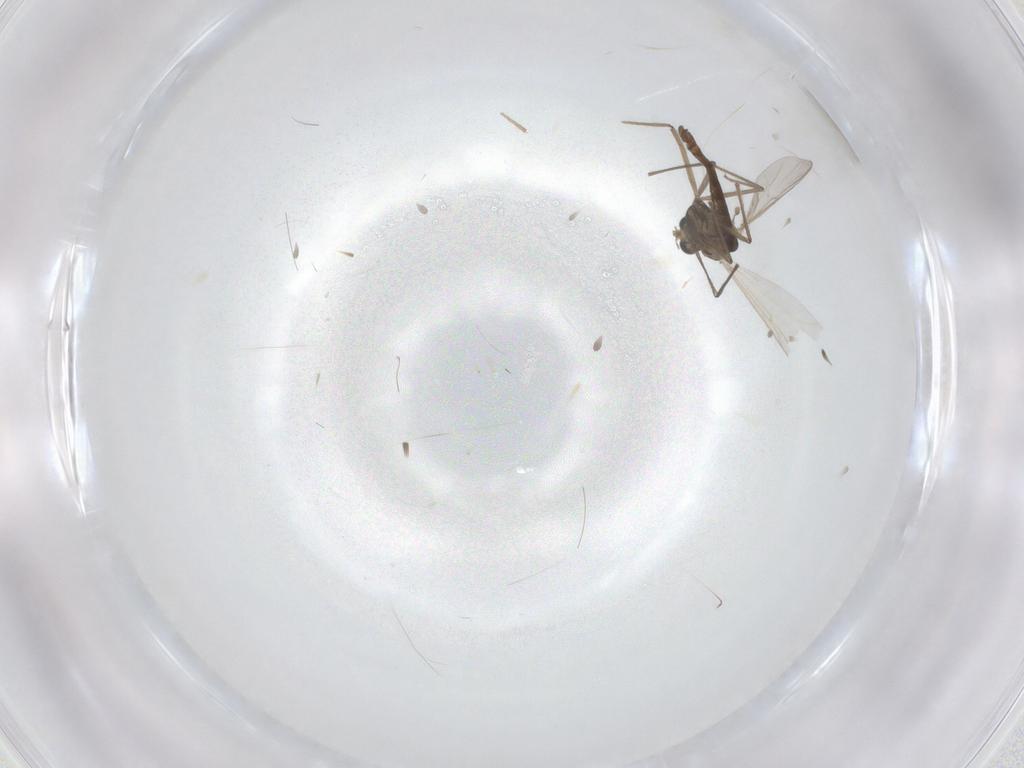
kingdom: Animalia
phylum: Arthropoda
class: Insecta
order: Diptera
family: Chironomidae
